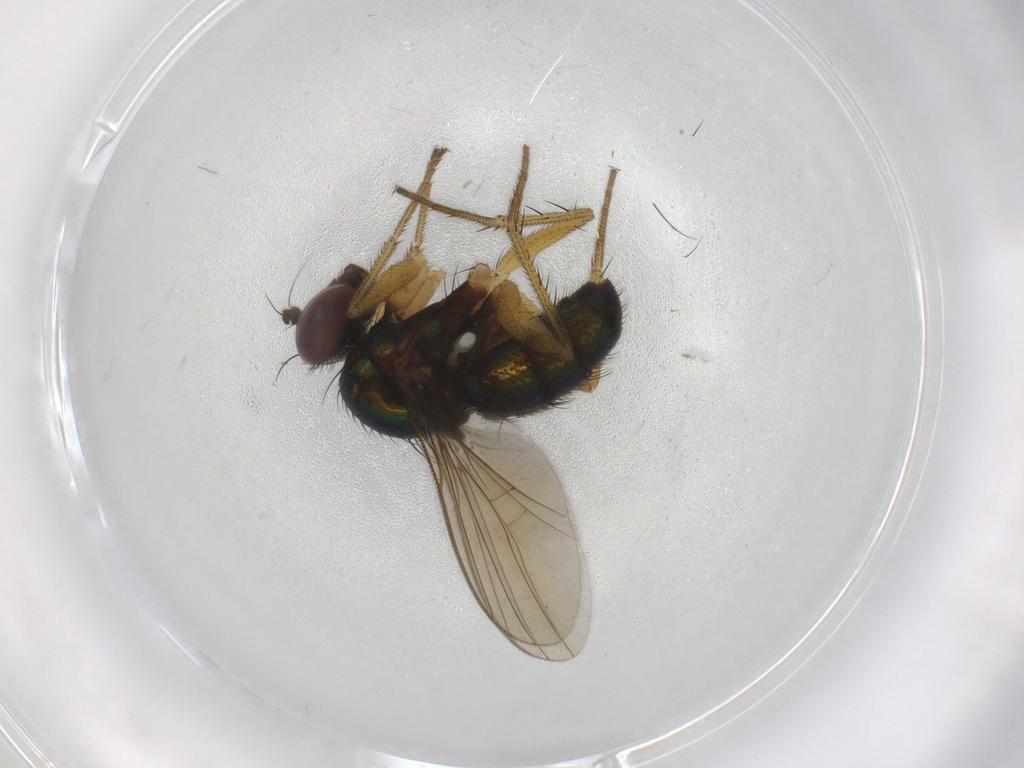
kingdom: Animalia
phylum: Arthropoda
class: Insecta
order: Diptera
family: Dolichopodidae
